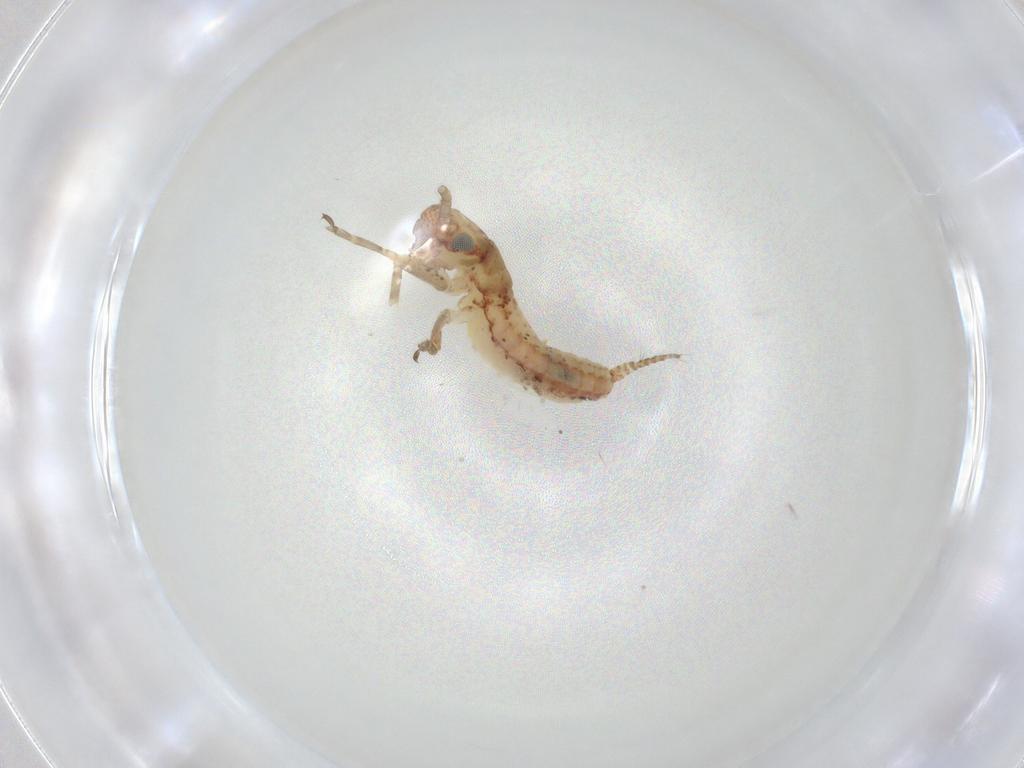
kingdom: Animalia
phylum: Arthropoda
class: Insecta
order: Orthoptera
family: Mogoplistidae
